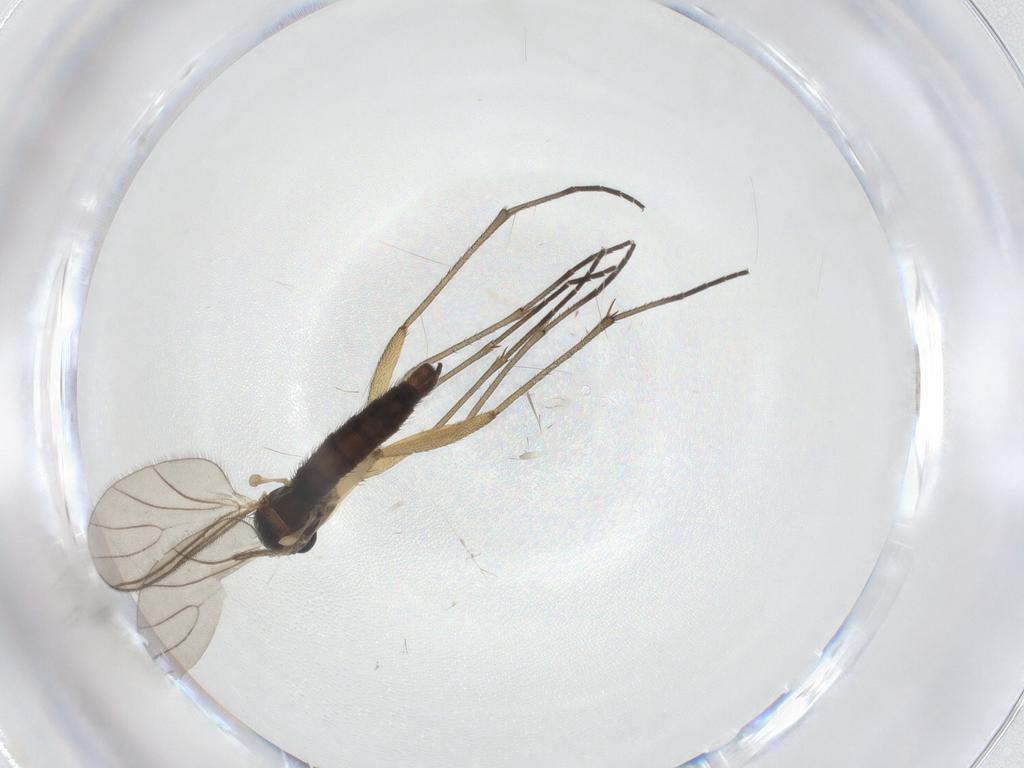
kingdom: Animalia
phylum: Arthropoda
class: Insecta
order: Diptera
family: Sciaridae
